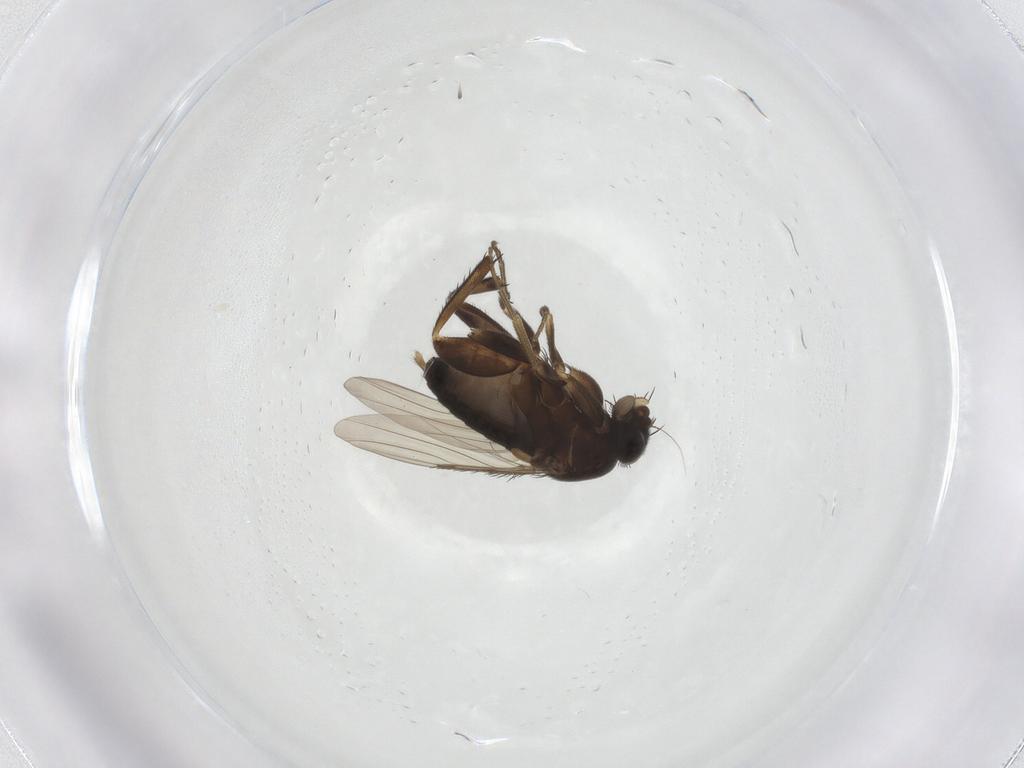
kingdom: Animalia
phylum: Arthropoda
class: Insecta
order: Diptera
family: Phoridae
